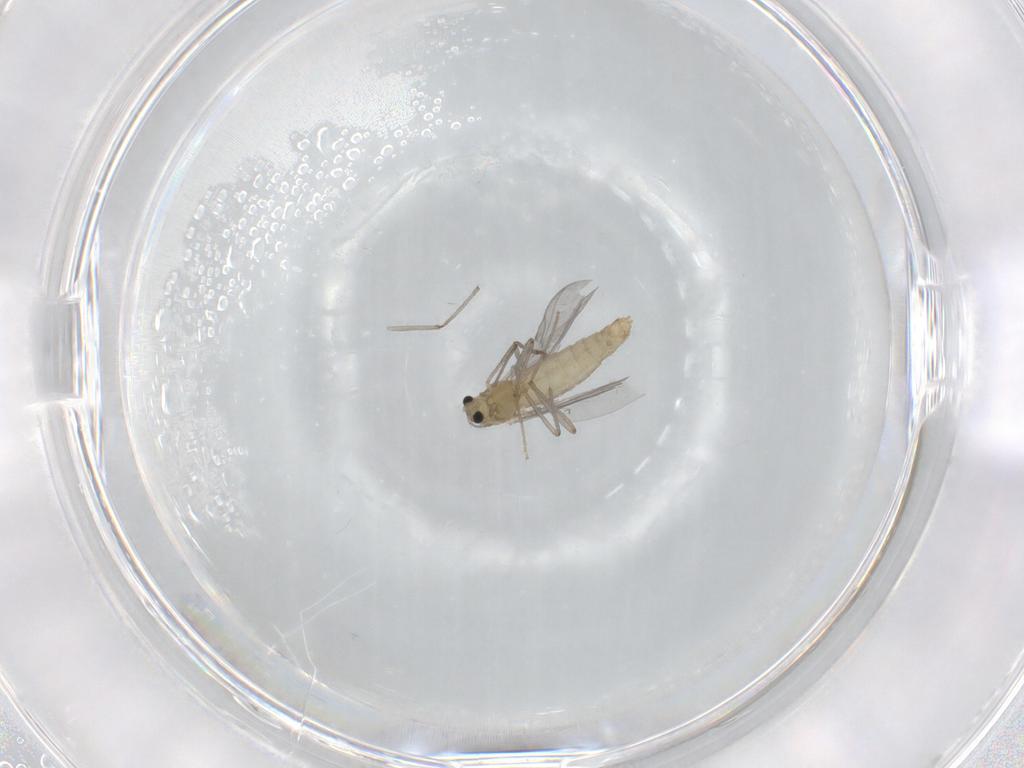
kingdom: Animalia
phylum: Arthropoda
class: Insecta
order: Diptera
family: Chironomidae
